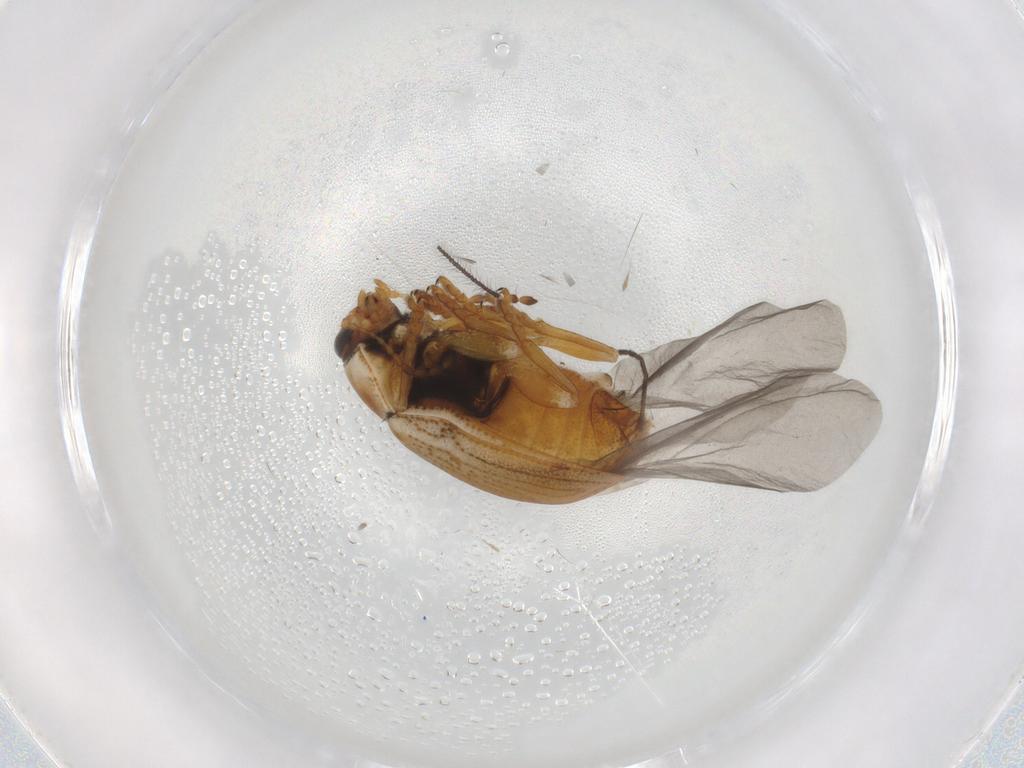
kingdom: Animalia
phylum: Arthropoda
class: Insecta
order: Coleoptera
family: Chrysomelidae
